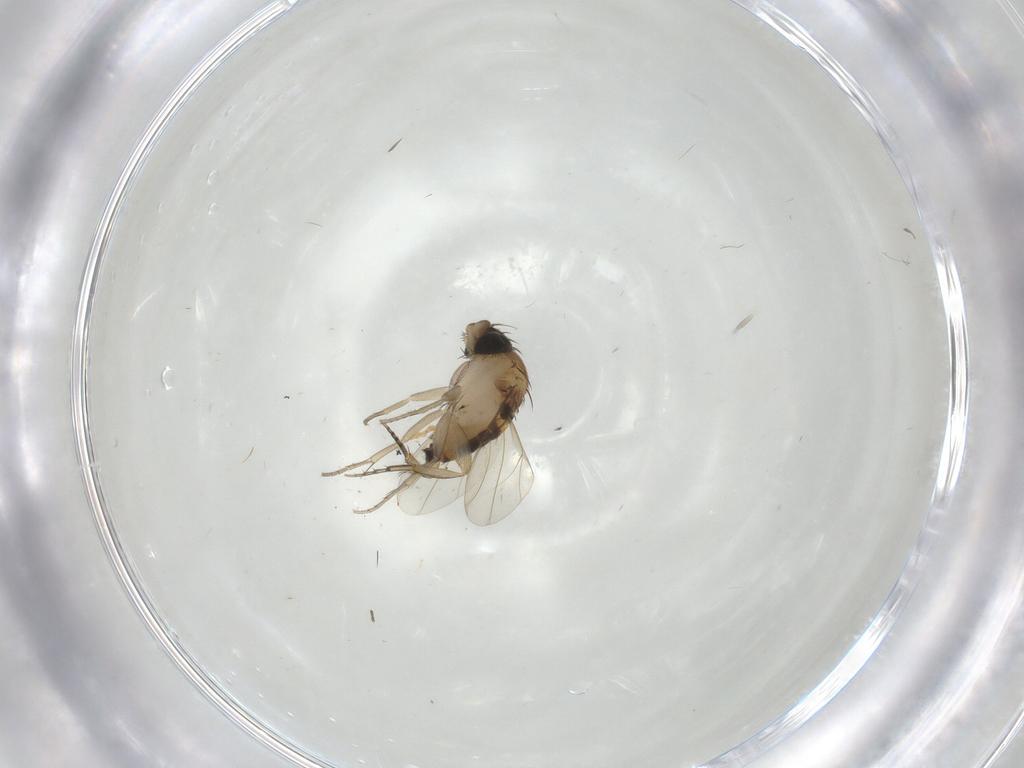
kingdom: Animalia
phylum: Arthropoda
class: Insecta
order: Diptera
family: Phoridae
